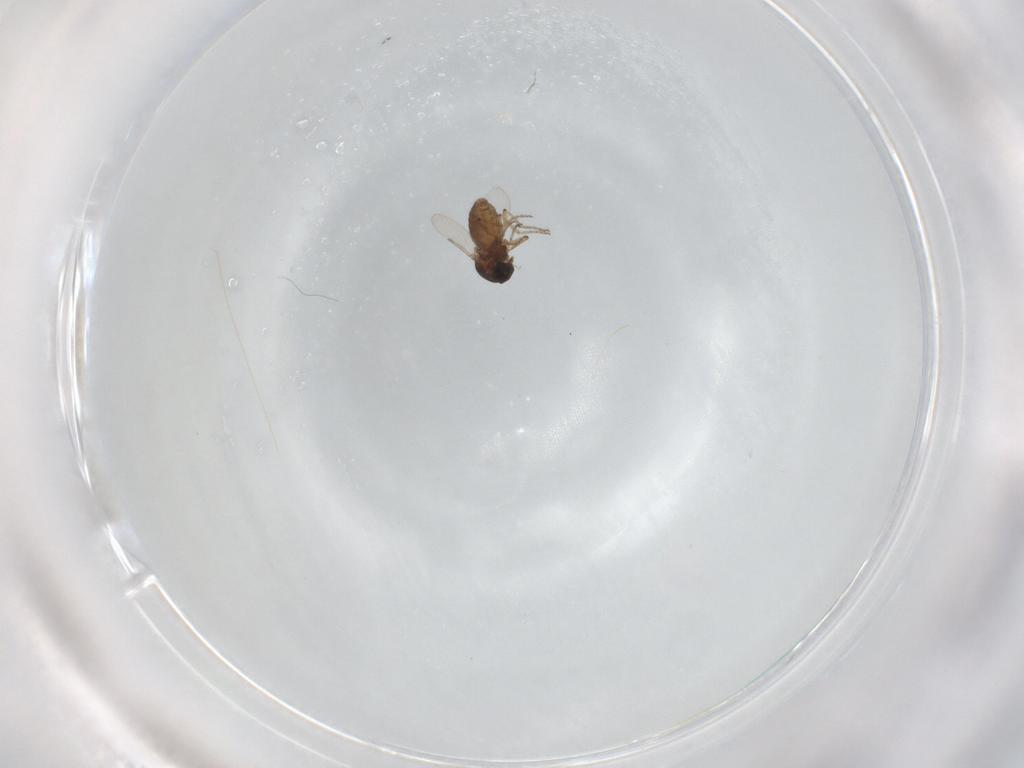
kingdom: Animalia
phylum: Arthropoda
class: Insecta
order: Diptera
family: Ceratopogonidae
